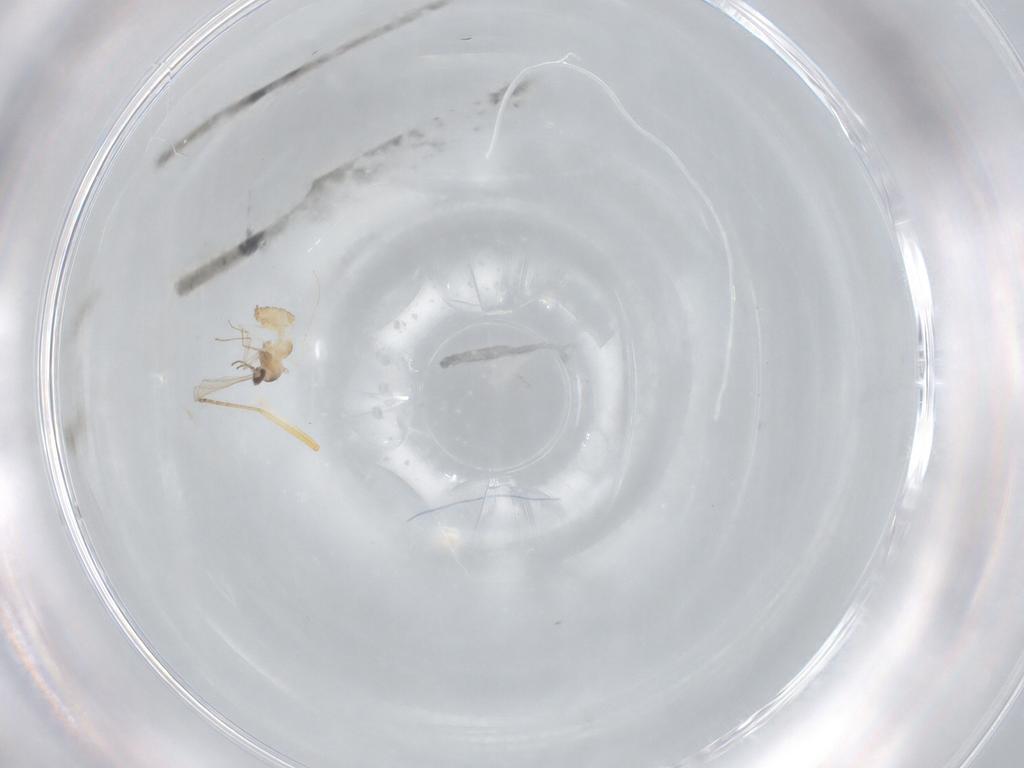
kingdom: Animalia
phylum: Arthropoda
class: Insecta
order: Diptera
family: Ceratopogonidae
